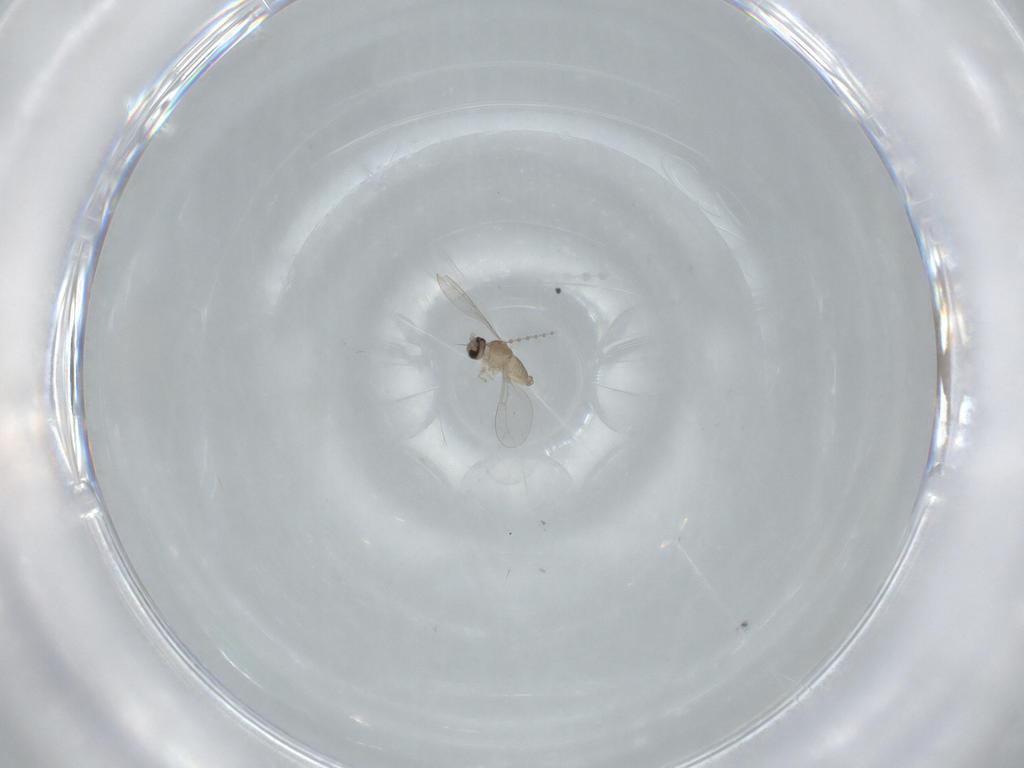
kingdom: Animalia
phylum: Arthropoda
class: Insecta
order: Diptera
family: Cecidomyiidae
